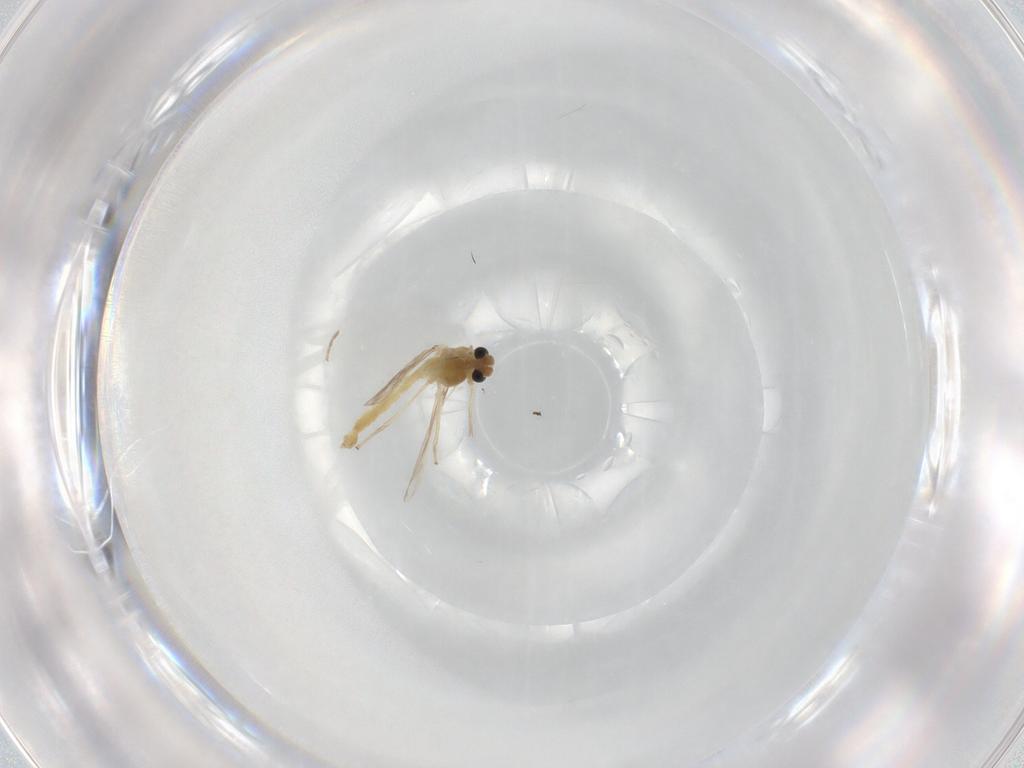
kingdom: Animalia
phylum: Arthropoda
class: Insecta
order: Diptera
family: Chironomidae
